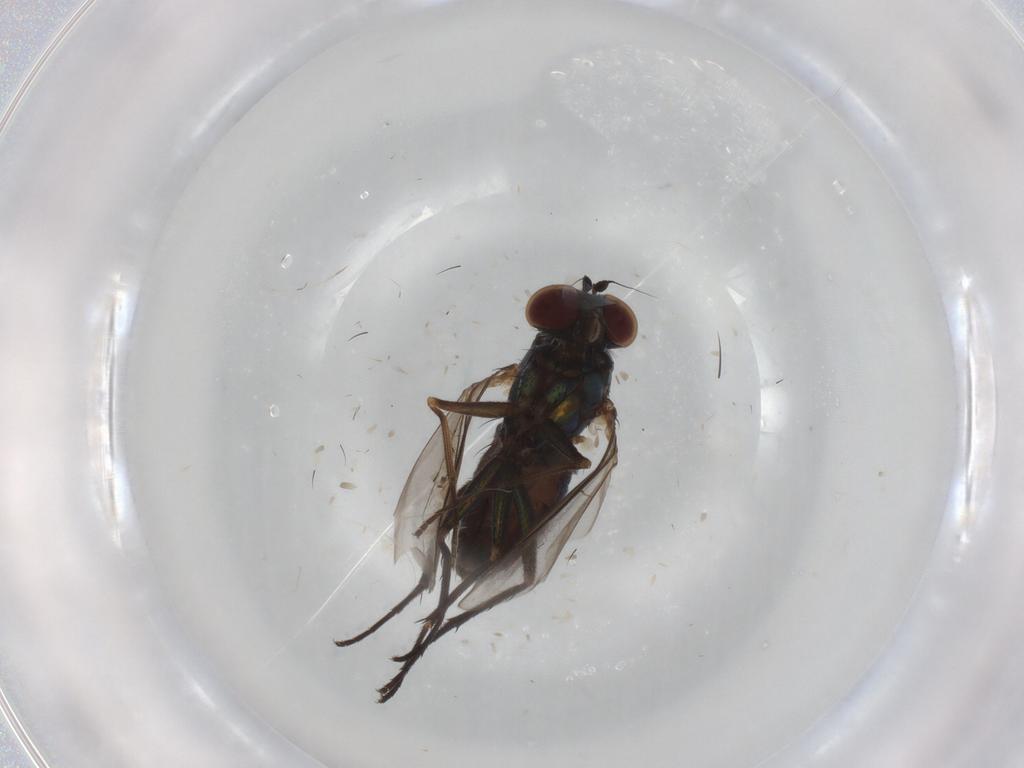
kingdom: Animalia
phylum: Arthropoda
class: Insecta
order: Diptera
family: Dolichopodidae
